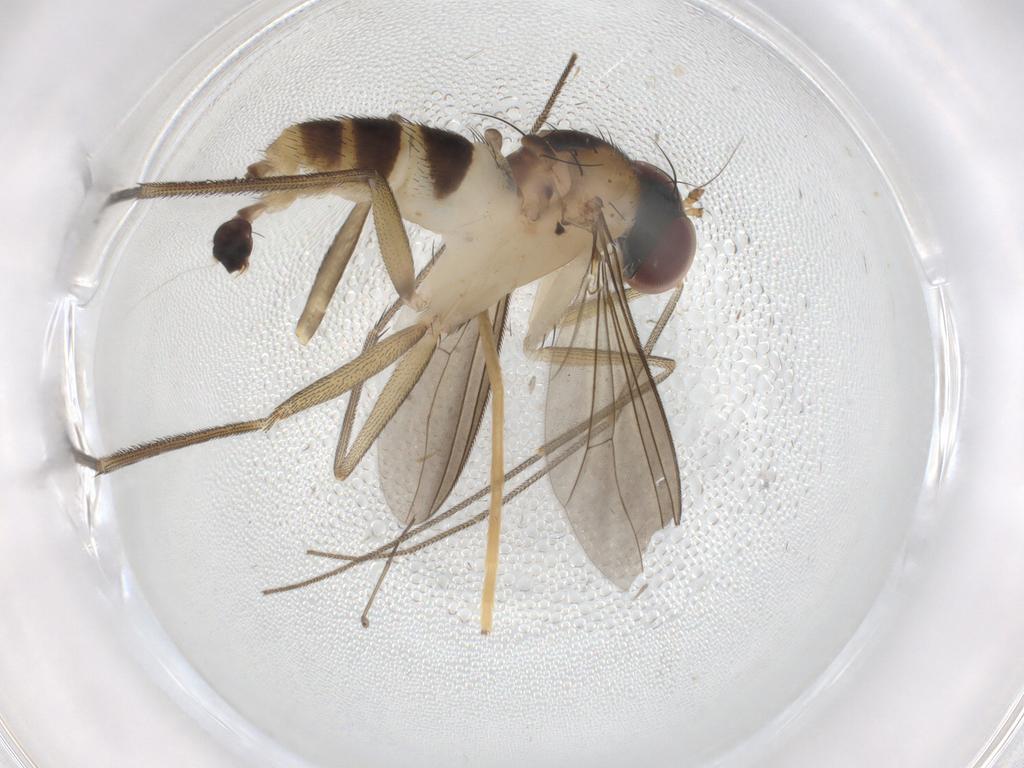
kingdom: Animalia
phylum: Arthropoda
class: Insecta
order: Diptera
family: Dolichopodidae
